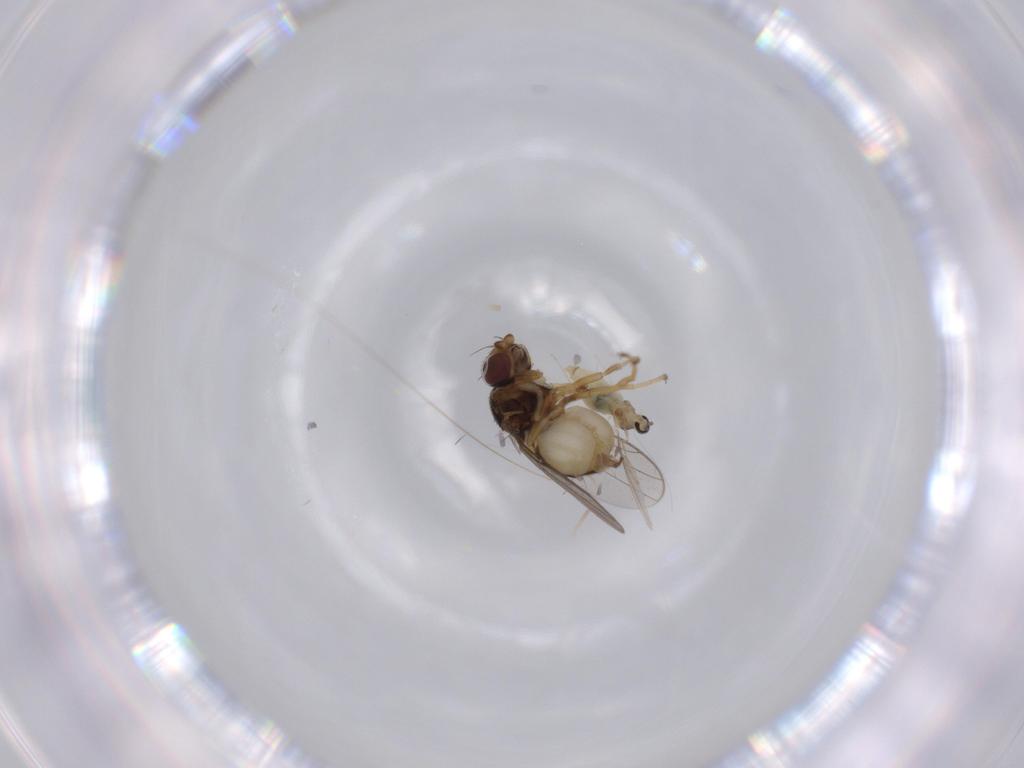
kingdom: Animalia
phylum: Arthropoda
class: Insecta
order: Diptera
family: Chloropidae
